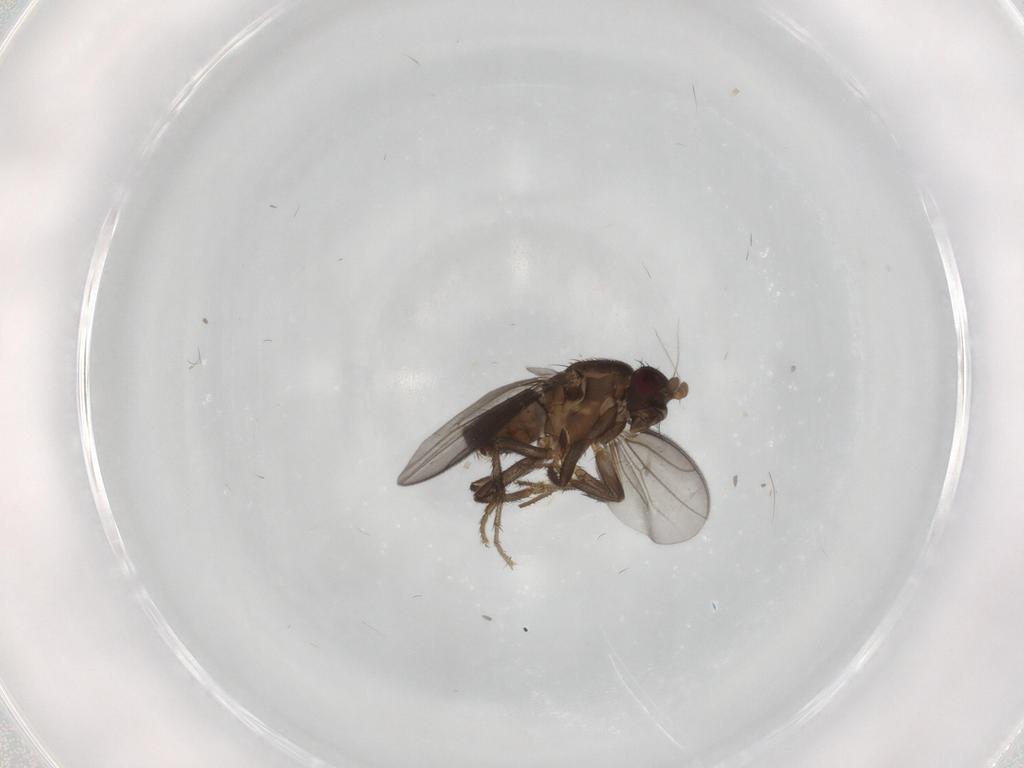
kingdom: Animalia
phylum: Arthropoda
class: Insecta
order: Diptera
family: Sphaeroceridae
